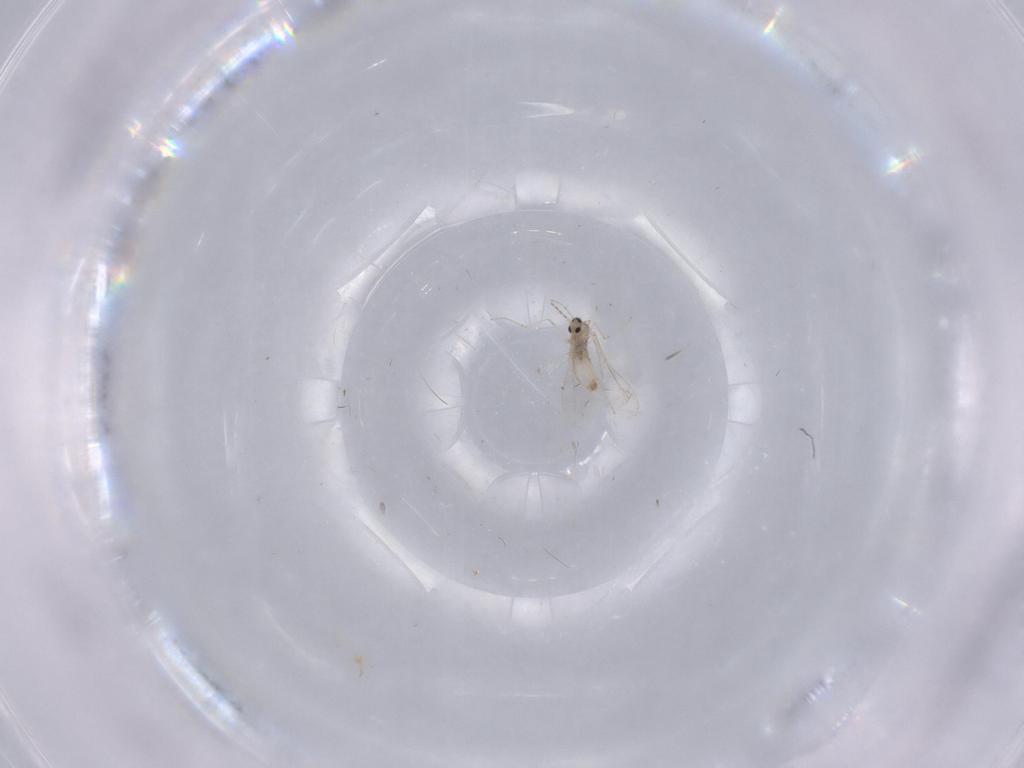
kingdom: Animalia
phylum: Arthropoda
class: Insecta
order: Diptera
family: Cecidomyiidae
